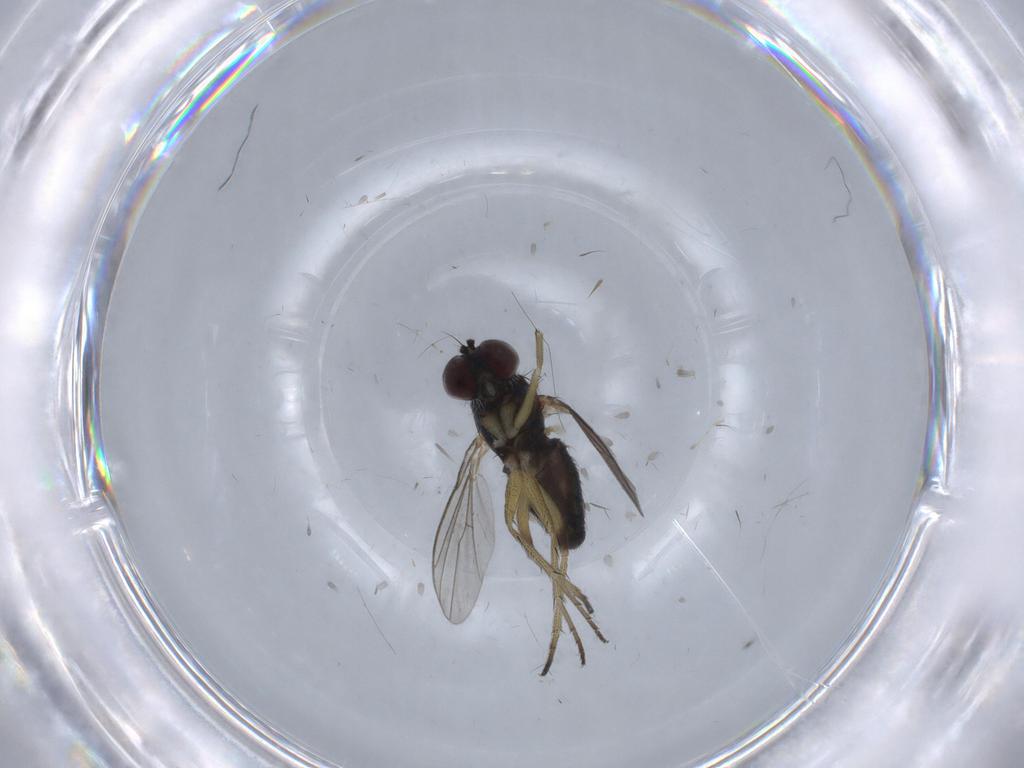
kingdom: Animalia
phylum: Arthropoda
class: Insecta
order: Diptera
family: Dolichopodidae
